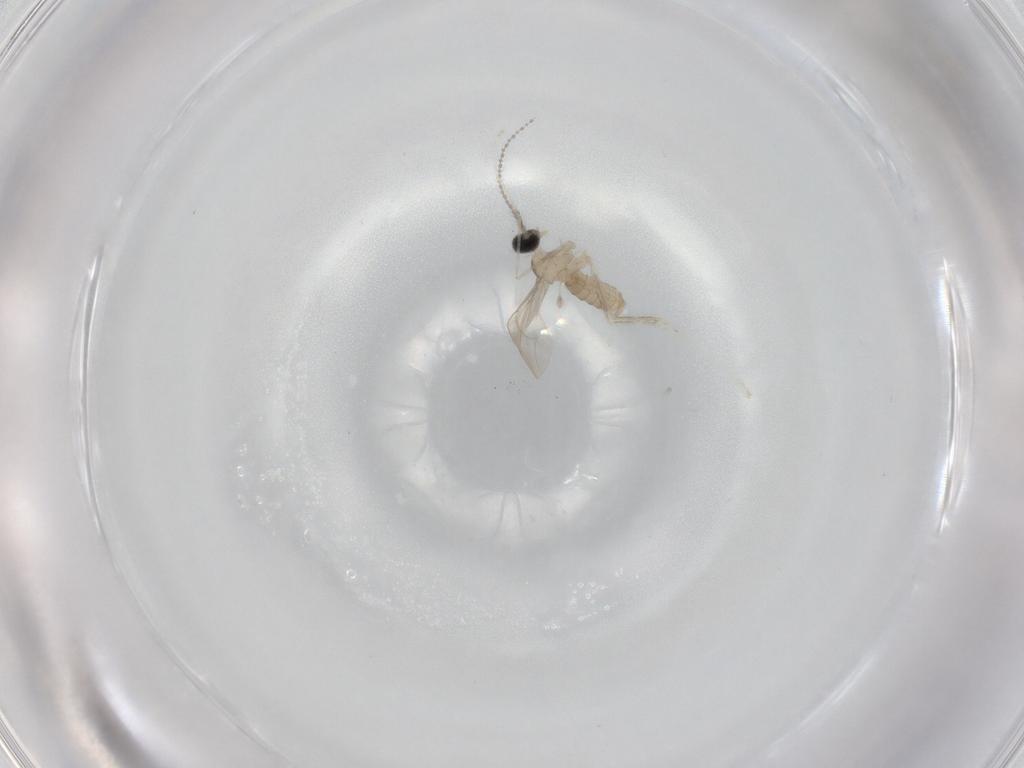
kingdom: Animalia
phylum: Arthropoda
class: Insecta
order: Diptera
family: Cecidomyiidae
